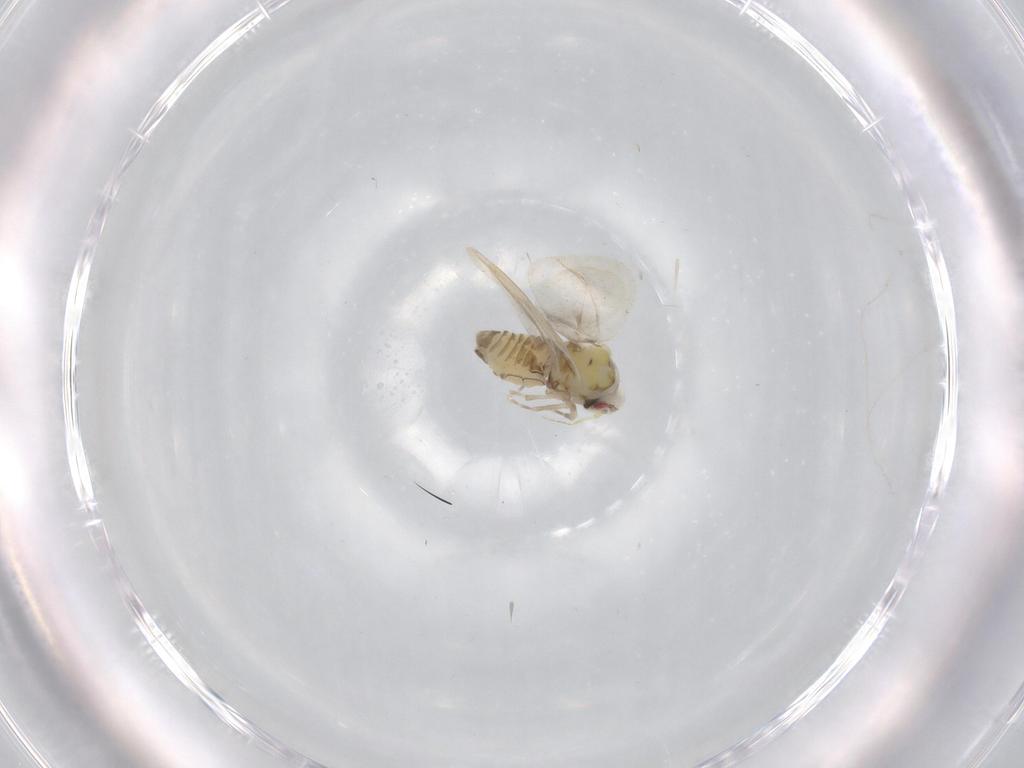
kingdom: Animalia
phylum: Arthropoda
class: Insecta
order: Hemiptera
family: Aleyrodidae
